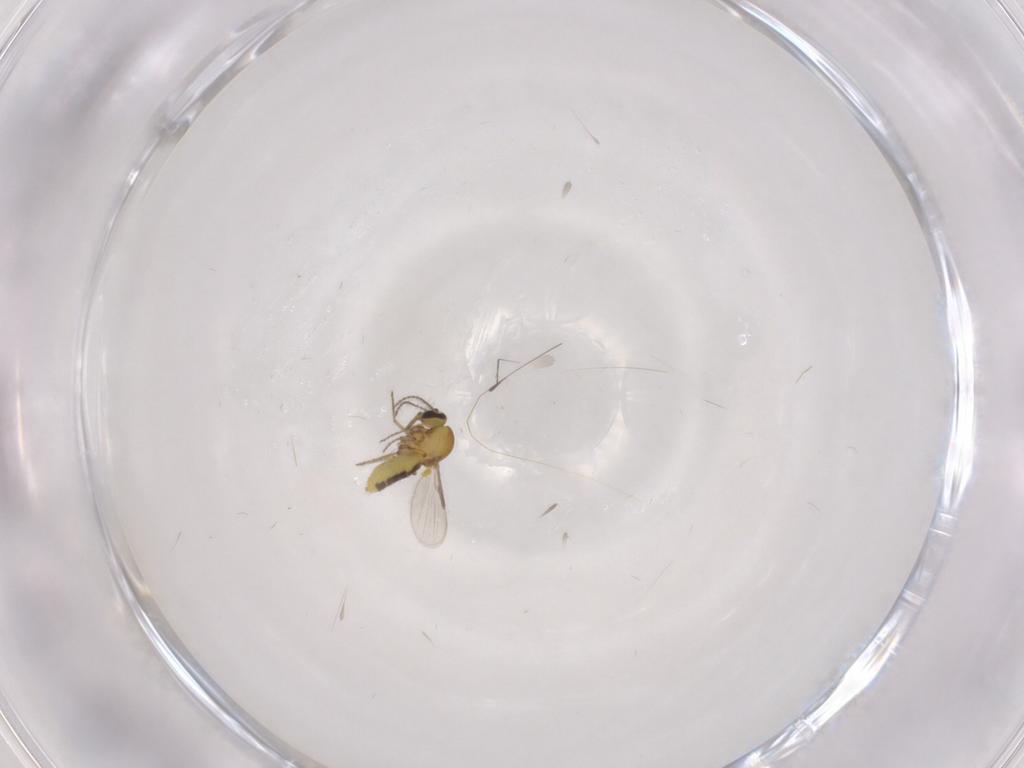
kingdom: Animalia
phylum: Arthropoda
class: Insecta
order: Diptera
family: Ceratopogonidae
